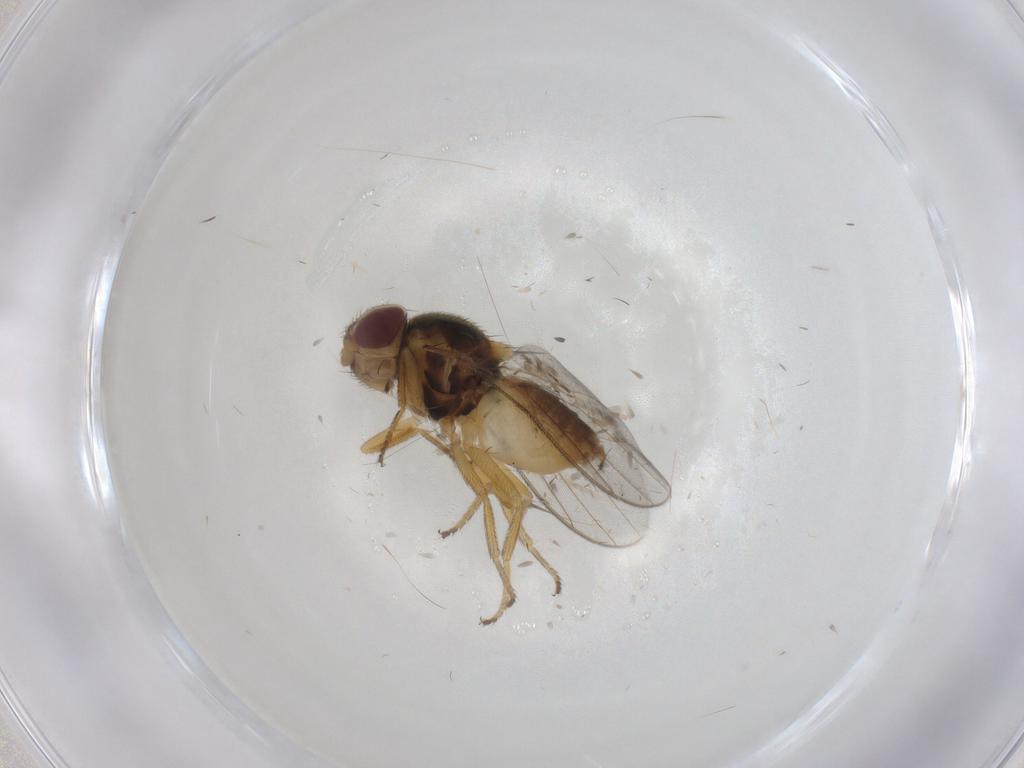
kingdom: Animalia
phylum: Arthropoda
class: Insecta
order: Diptera
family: Chloropidae
